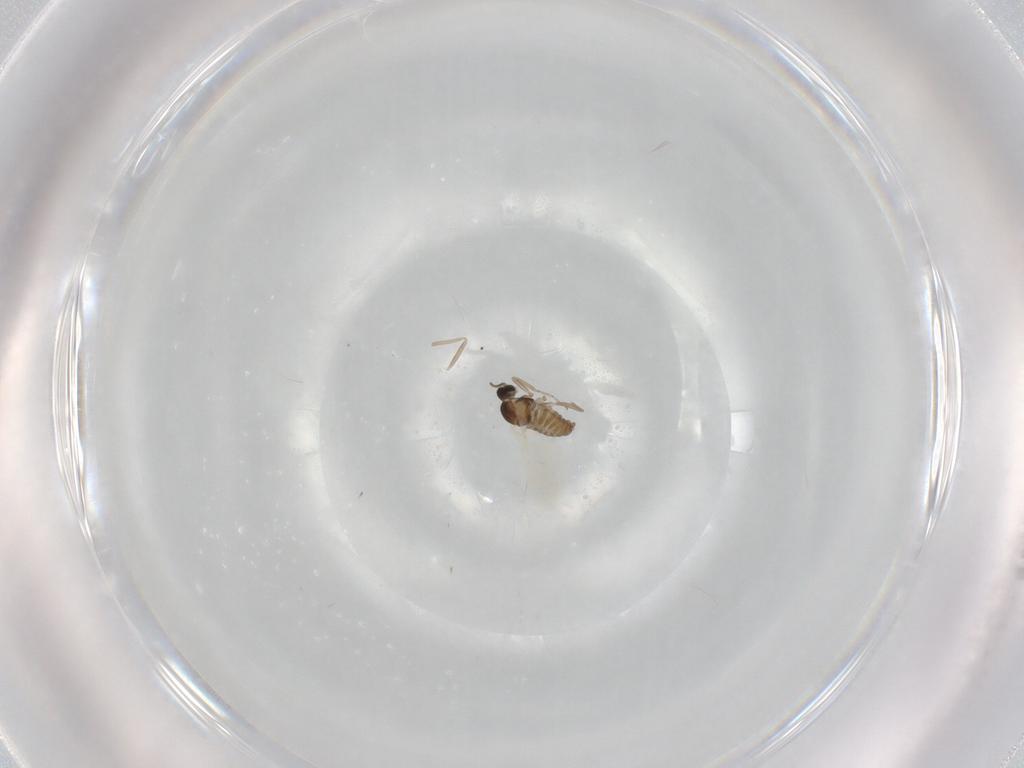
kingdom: Animalia
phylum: Arthropoda
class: Insecta
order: Diptera
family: Cecidomyiidae
